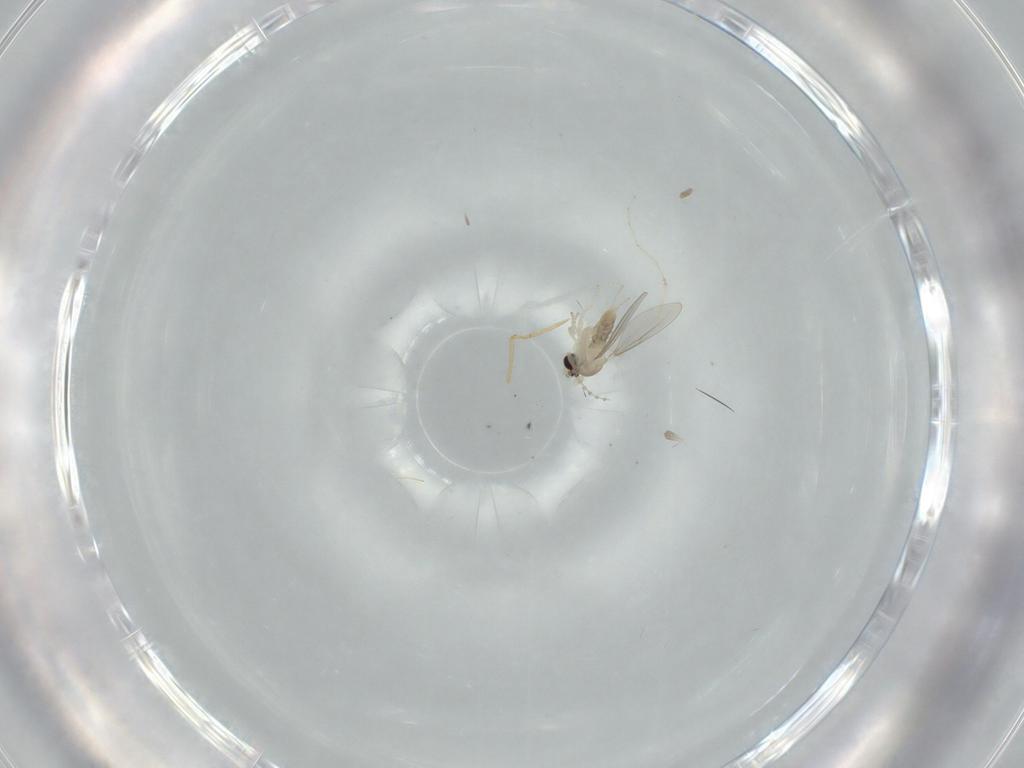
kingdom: Animalia
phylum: Arthropoda
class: Insecta
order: Diptera
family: Cecidomyiidae
